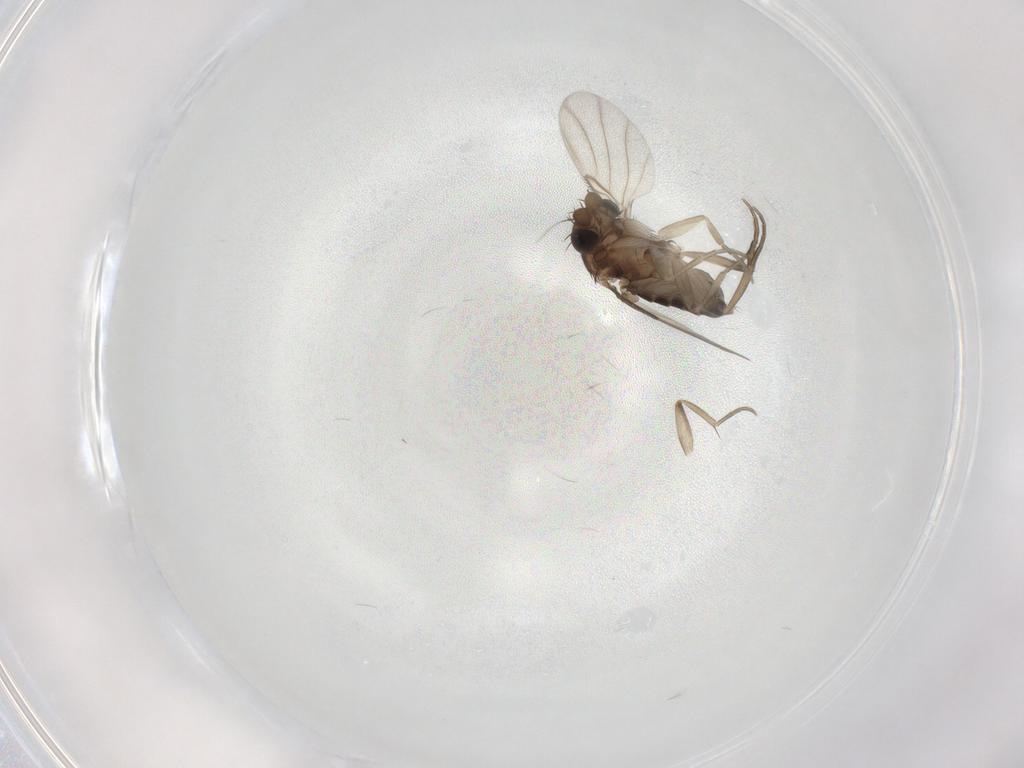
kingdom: Animalia
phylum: Arthropoda
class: Insecta
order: Diptera
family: Phoridae
